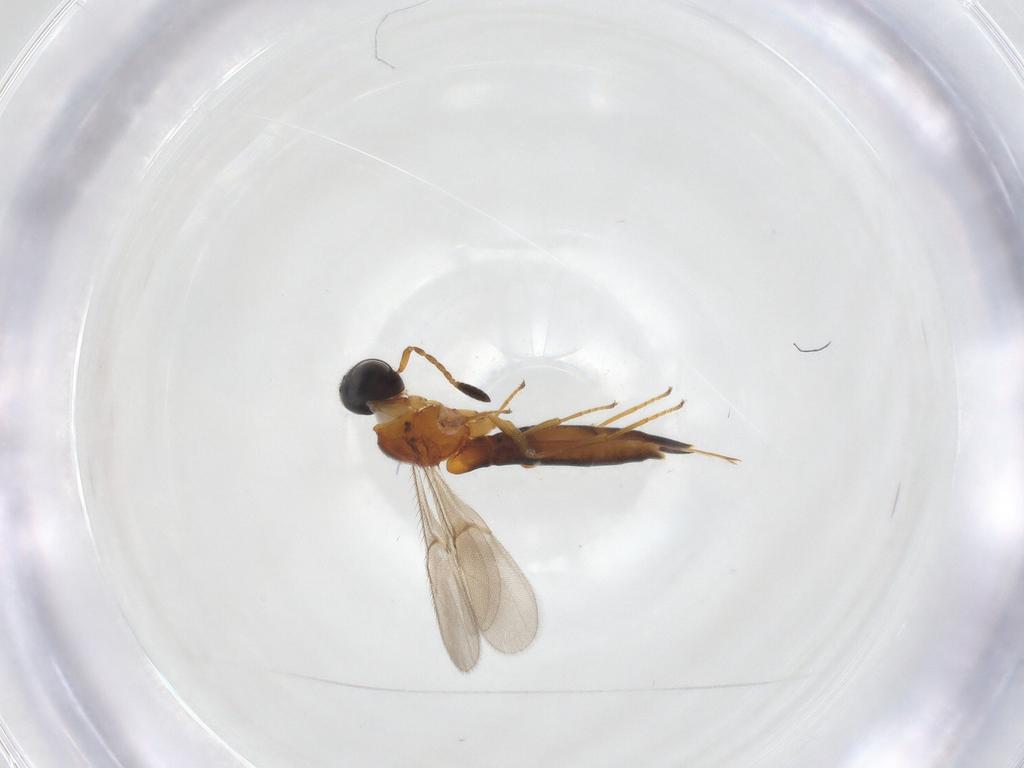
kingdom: Animalia
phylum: Arthropoda
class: Insecta
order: Hymenoptera
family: Scelionidae
